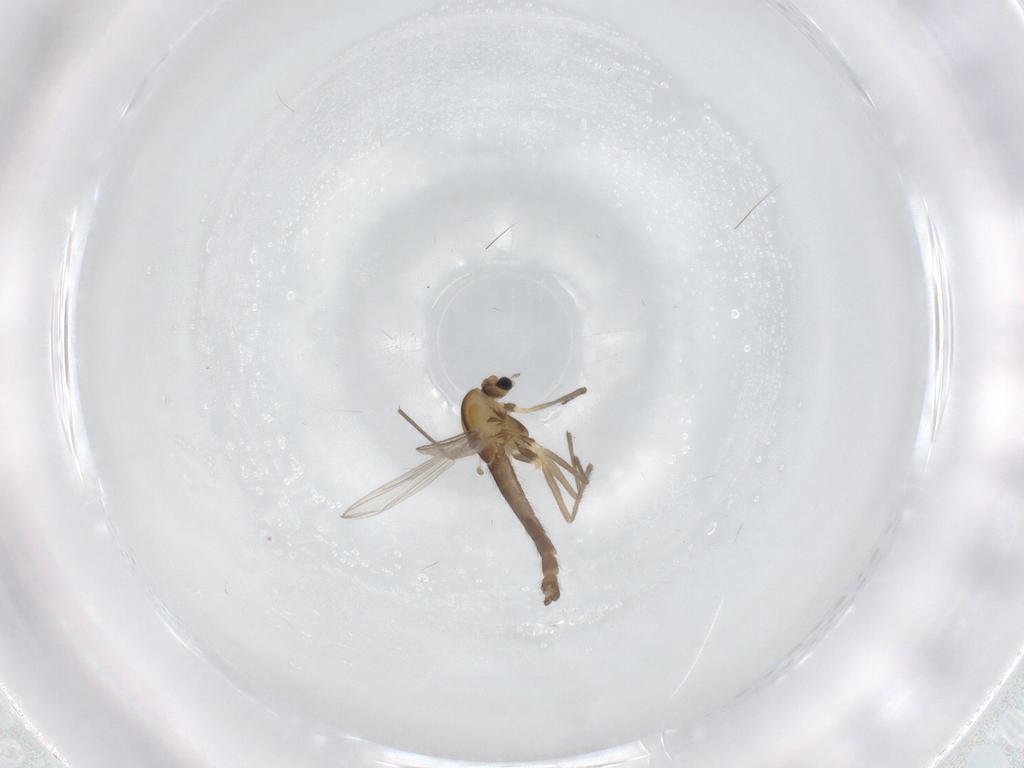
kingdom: Animalia
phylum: Arthropoda
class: Insecta
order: Diptera
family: Chironomidae
